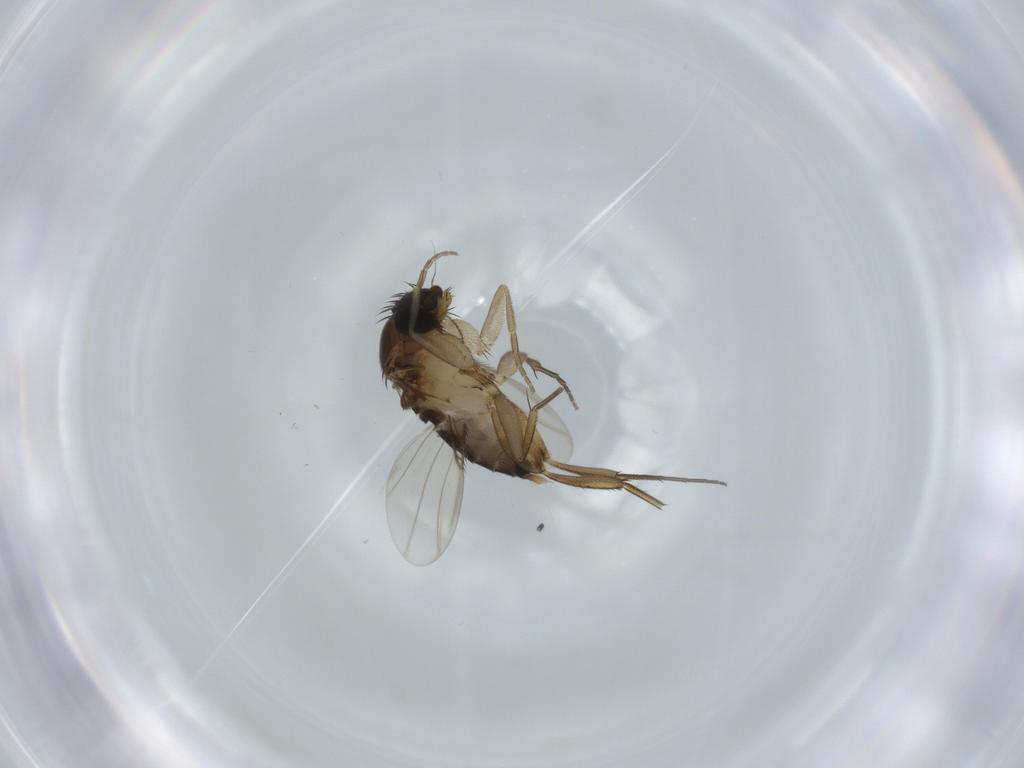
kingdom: Animalia
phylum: Arthropoda
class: Insecta
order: Diptera
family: Phoridae
